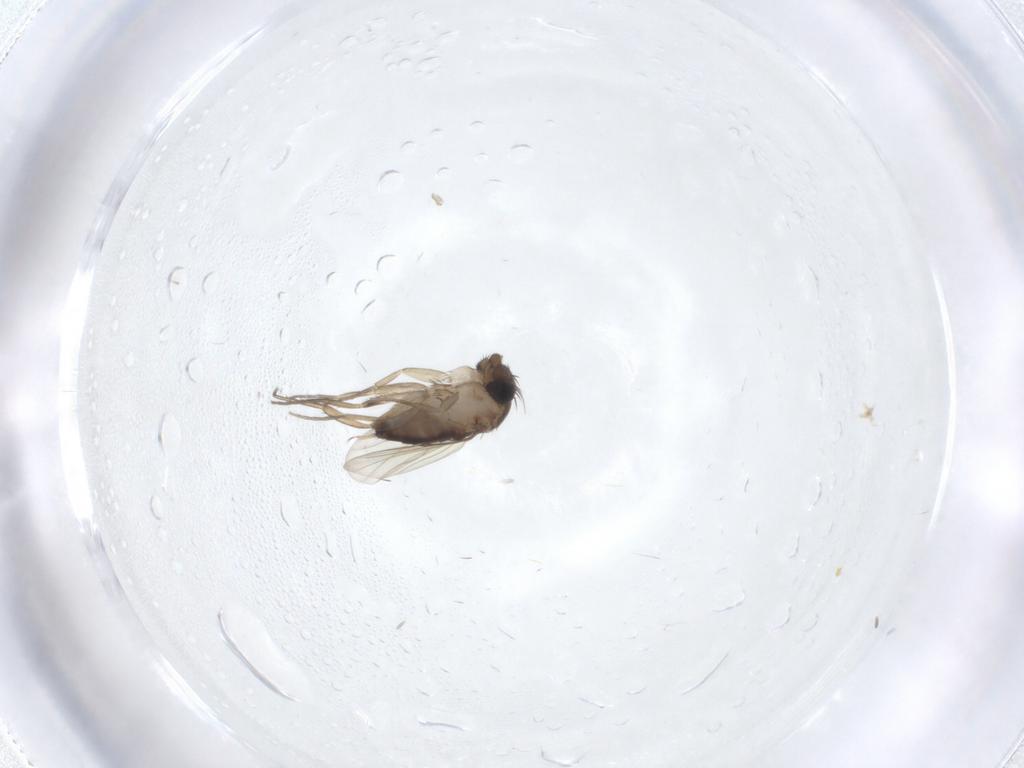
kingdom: Animalia
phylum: Arthropoda
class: Insecta
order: Diptera
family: Phoridae
